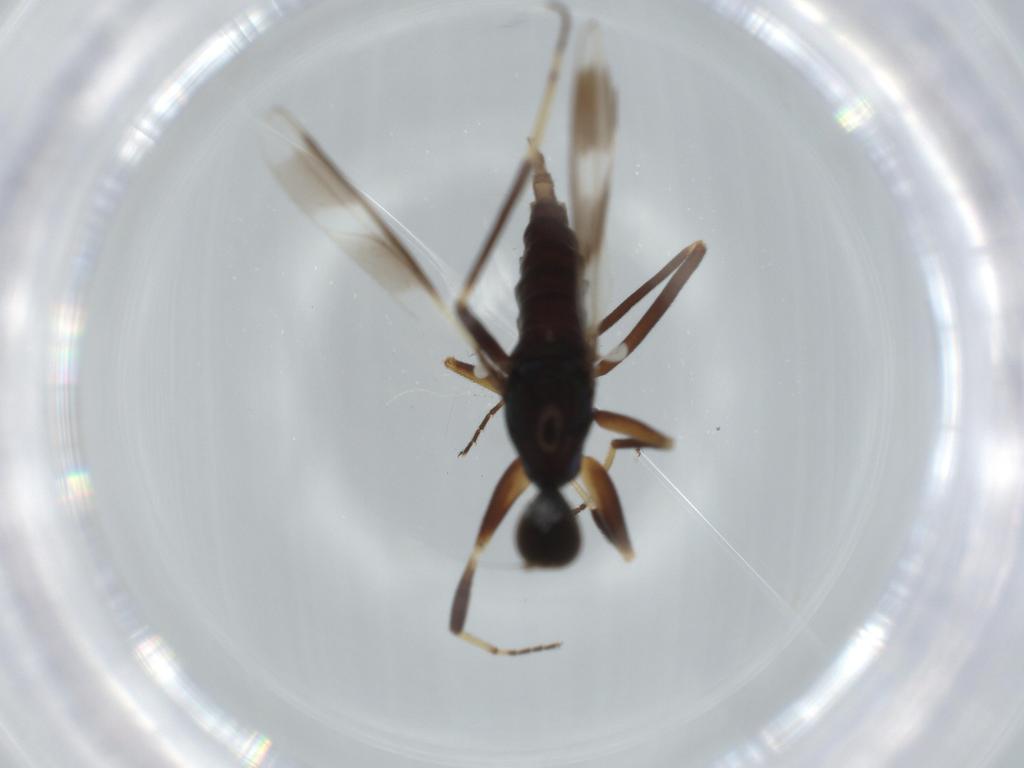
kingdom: Animalia
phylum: Arthropoda
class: Insecta
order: Diptera
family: Hybotidae
